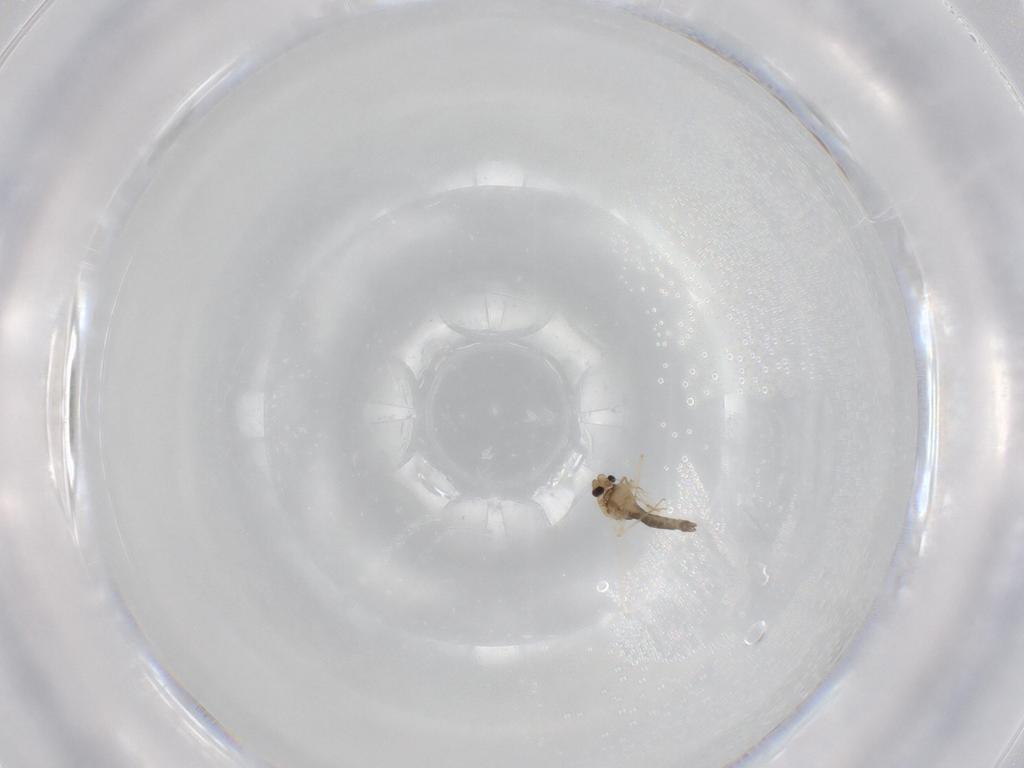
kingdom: Animalia
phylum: Arthropoda
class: Insecta
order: Diptera
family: Chironomidae
